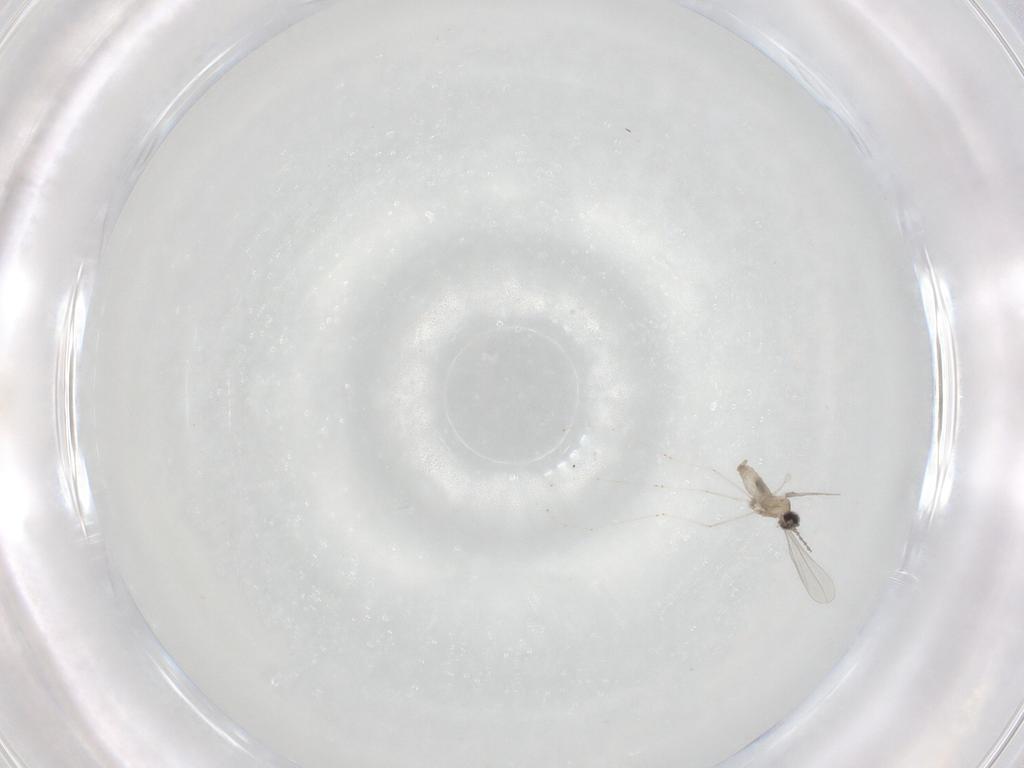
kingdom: Animalia
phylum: Arthropoda
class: Insecta
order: Diptera
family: Cecidomyiidae
